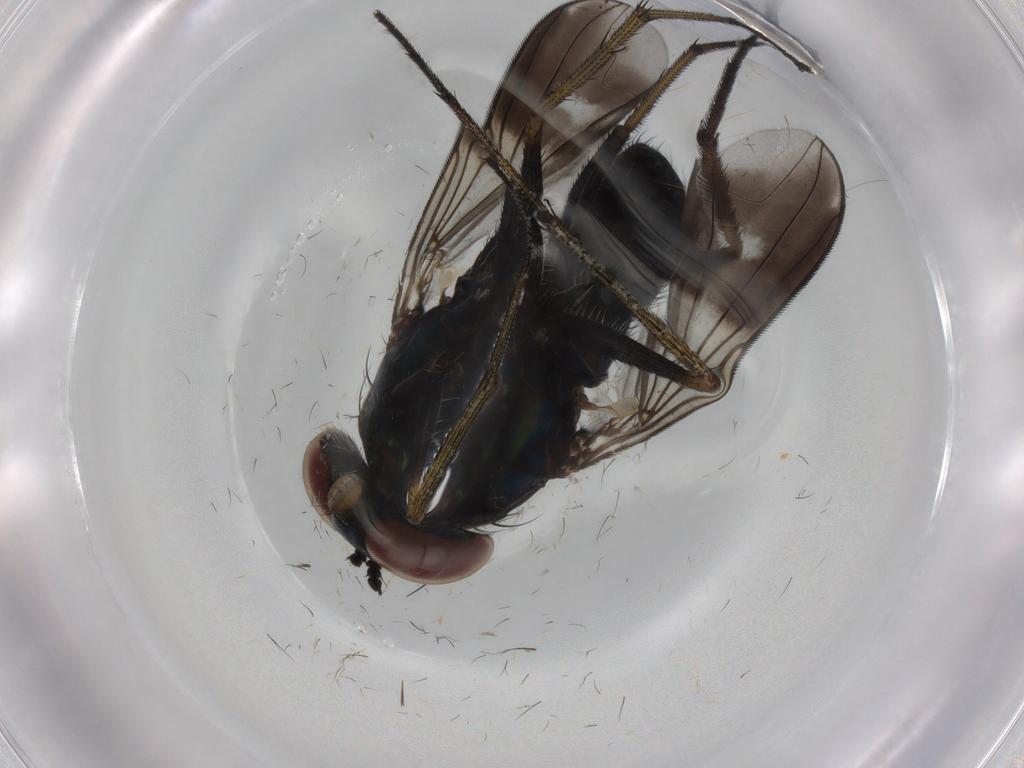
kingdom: Animalia
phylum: Arthropoda
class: Insecta
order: Diptera
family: Dolichopodidae
